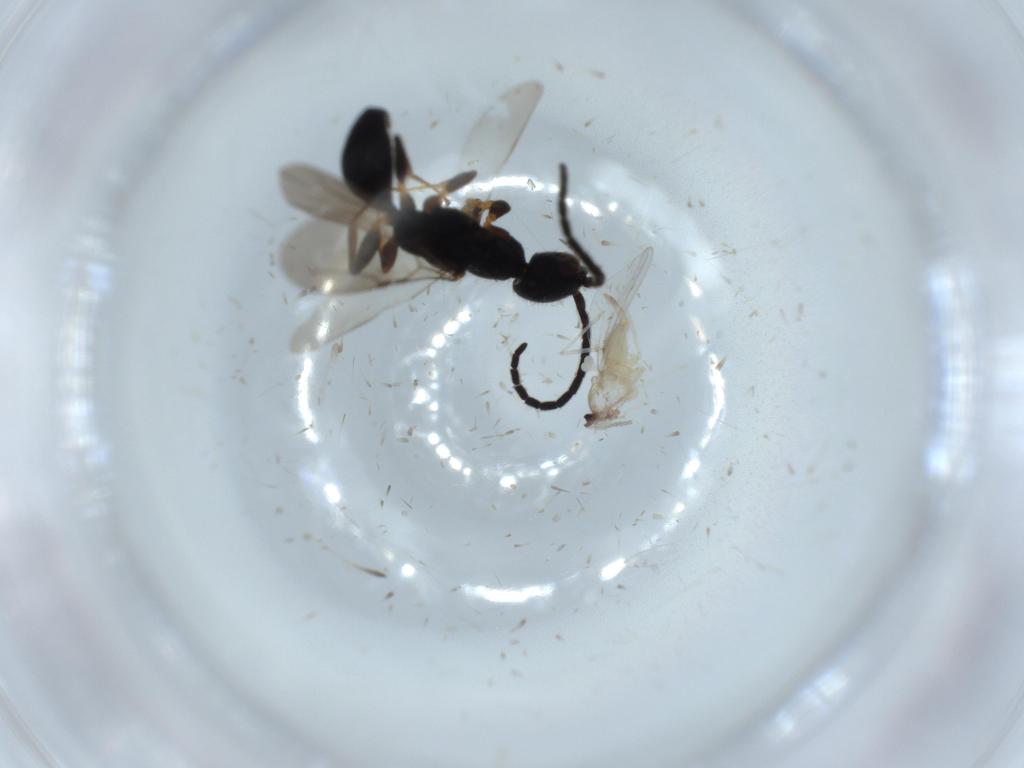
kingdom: Animalia
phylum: Arthropoda
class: Insecta
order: Diptera
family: Cecidomyiidae
